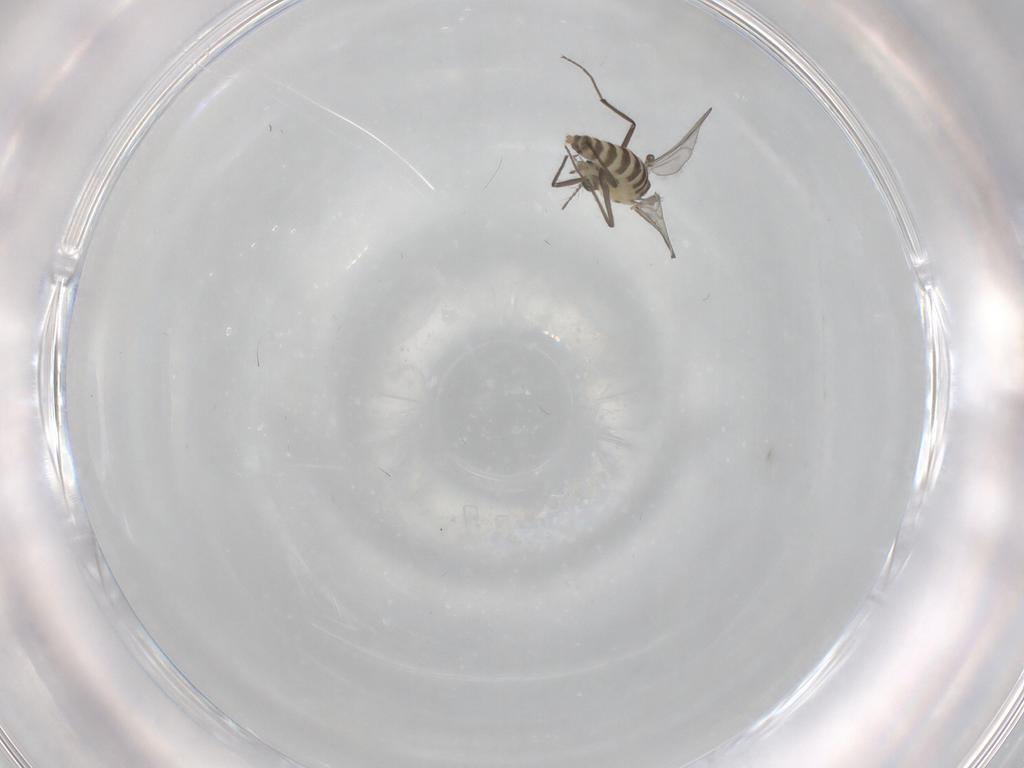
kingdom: Animalia
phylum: Arthropoda
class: Insecta
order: Diptera
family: Chironomidae
